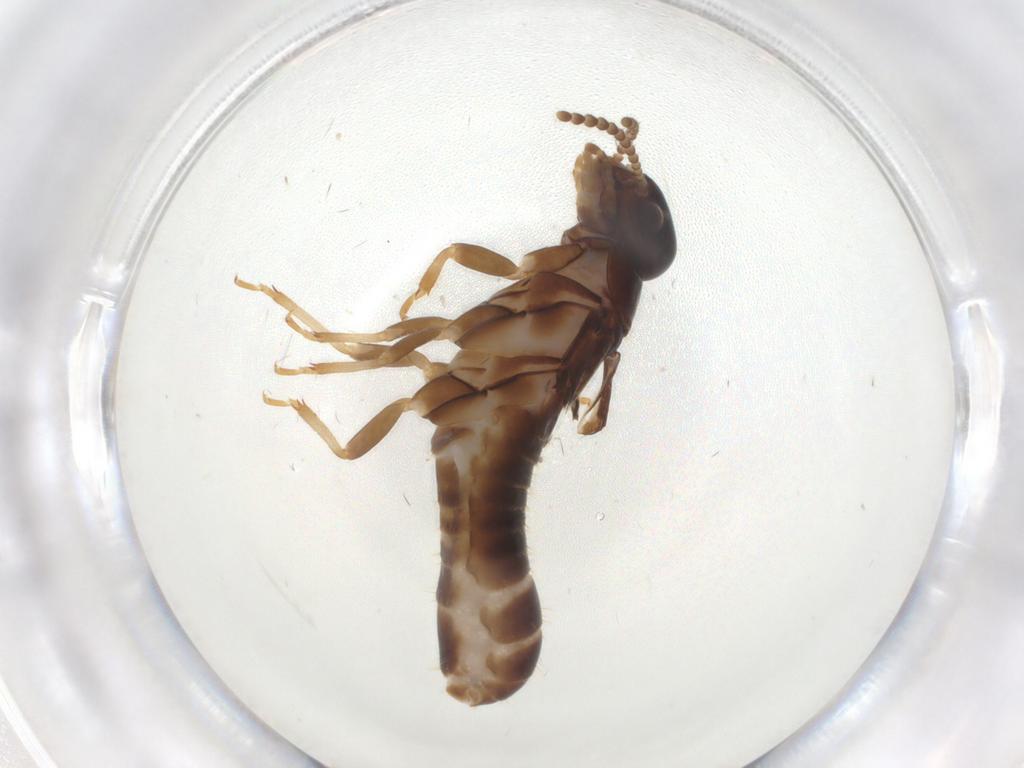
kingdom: Animalia
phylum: Arthropoda
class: Insecta
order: Blattodea
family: Kalotermitidae
